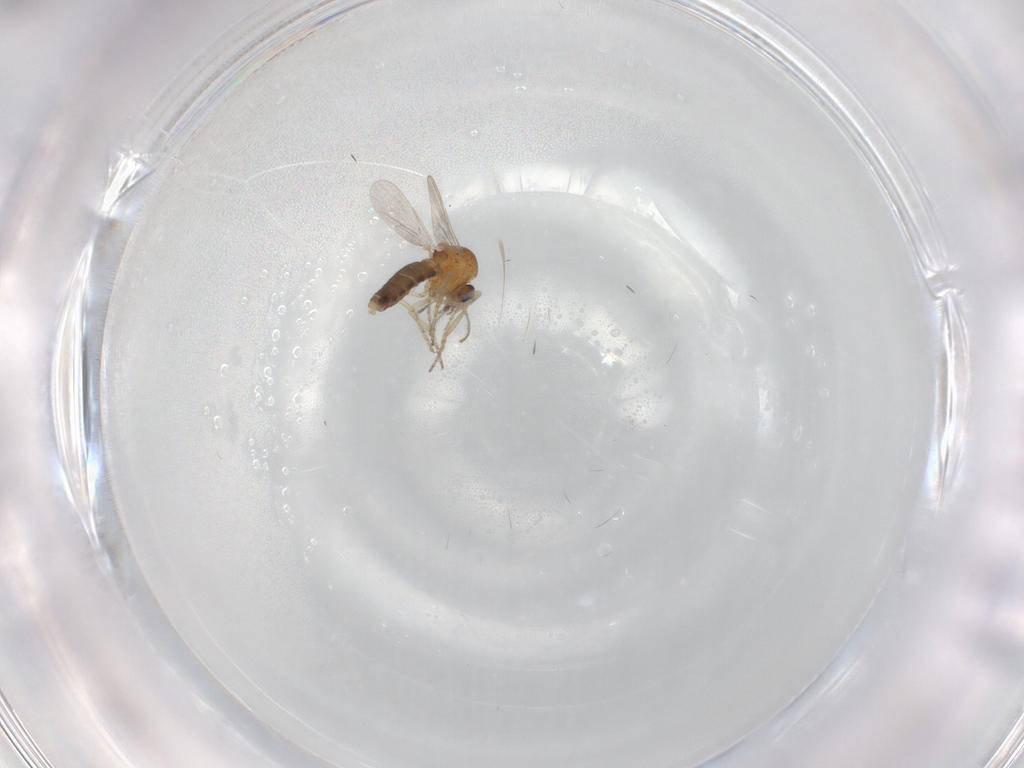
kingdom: Animalia
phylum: Arthropoda
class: Insecta
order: Diptera
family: Ceratopogonidae
